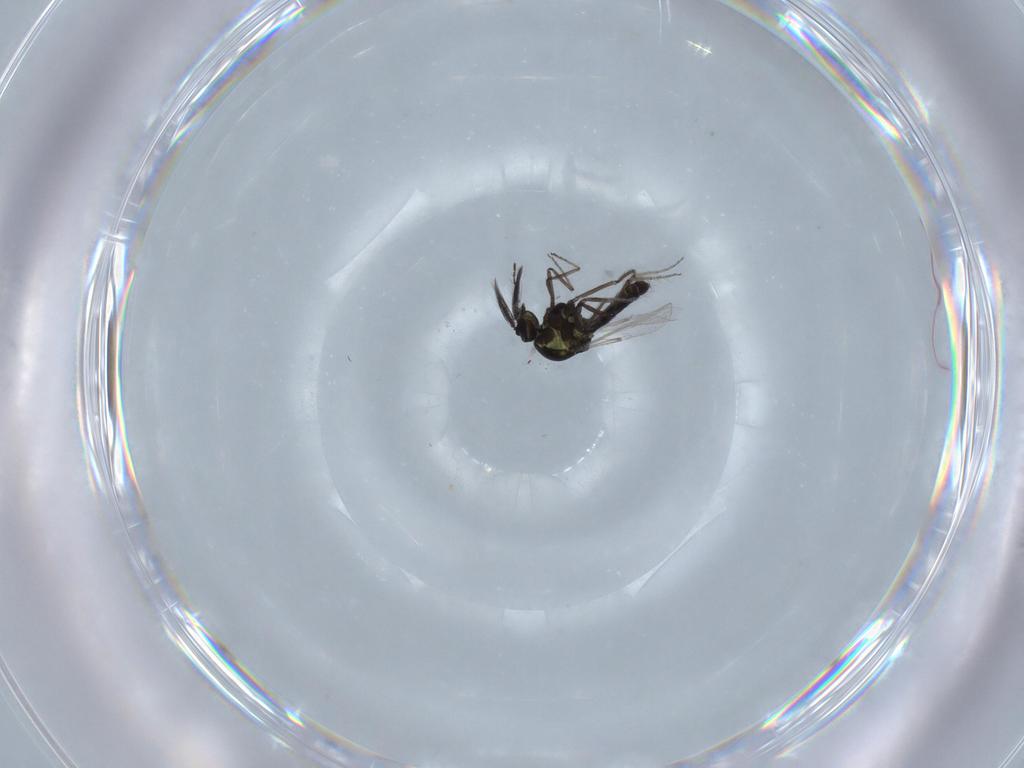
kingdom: Animalia
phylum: Arthropoda
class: Insecta
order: Diptera
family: Ceratopogonidae
